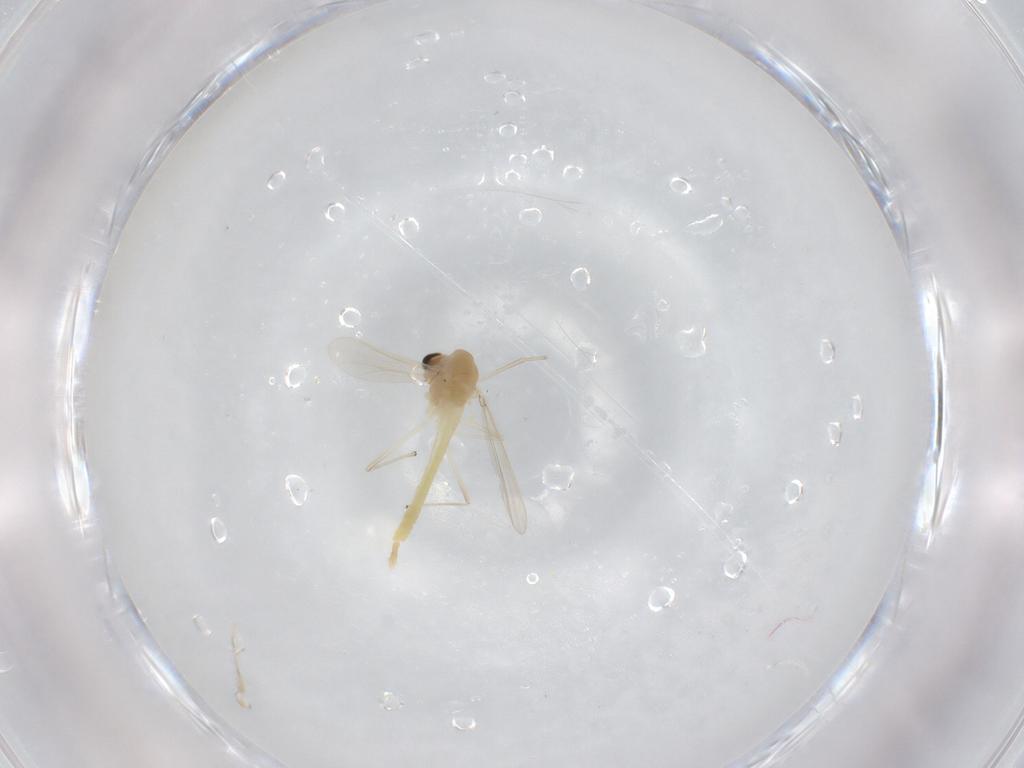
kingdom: Animalia
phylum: Arthropoda
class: Insecta
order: Diptera
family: Chironomidae
